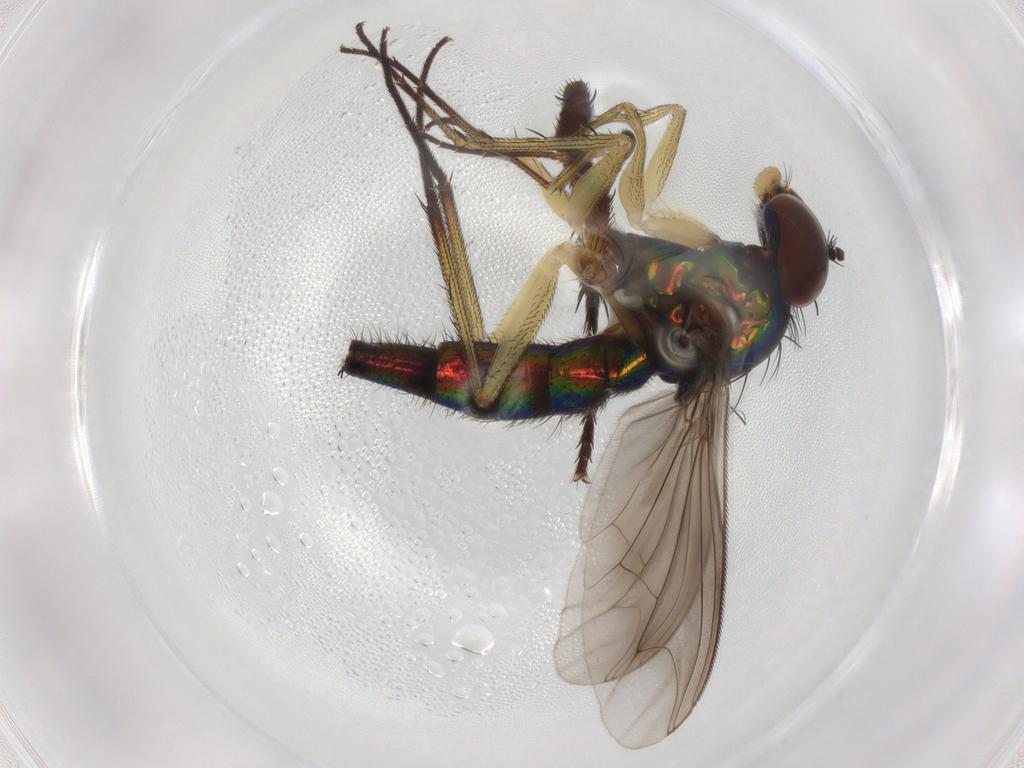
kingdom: Animalia
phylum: Arthropoda
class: Insecta
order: Diptera
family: Dolichopodidae
